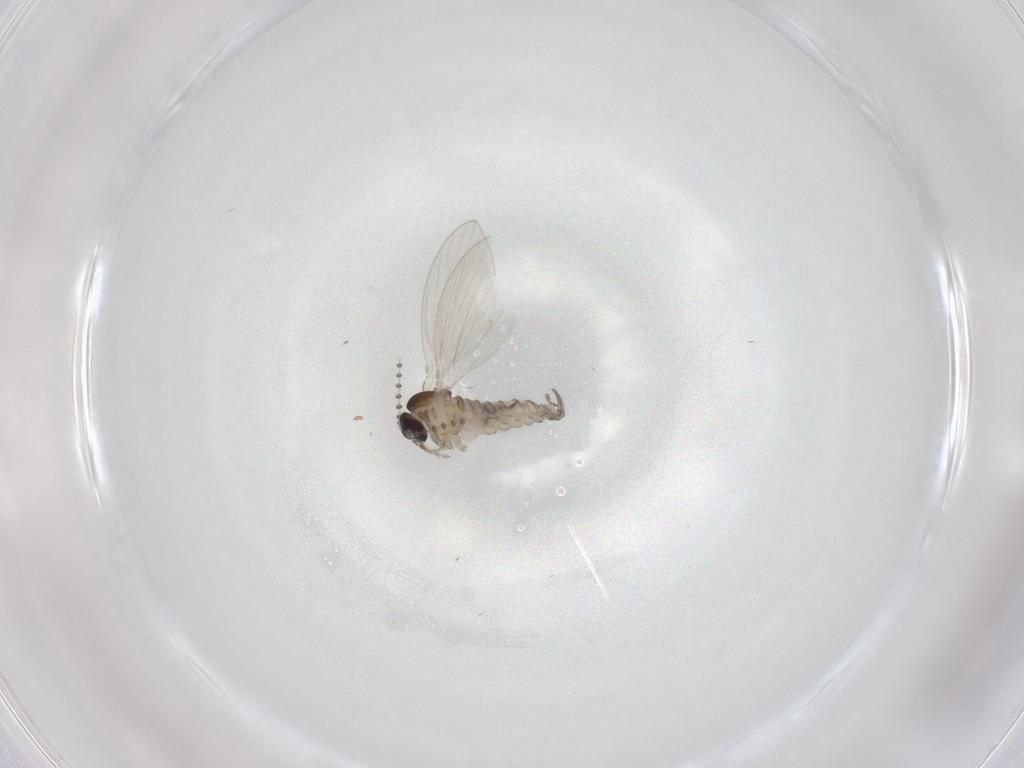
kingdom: Animalia
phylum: Arthropoda
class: Insecta
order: Diptera
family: Psychodidae
